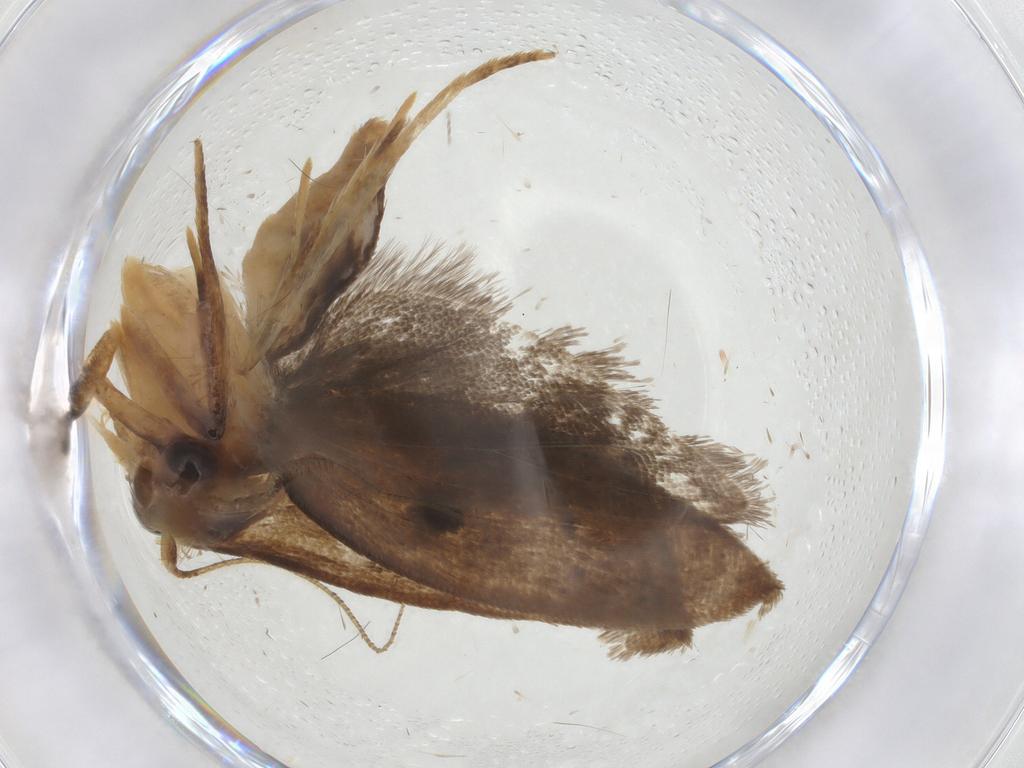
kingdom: Animalia
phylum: Arthropoda
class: Insecta
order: Lepidoptera
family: Depressariidae
